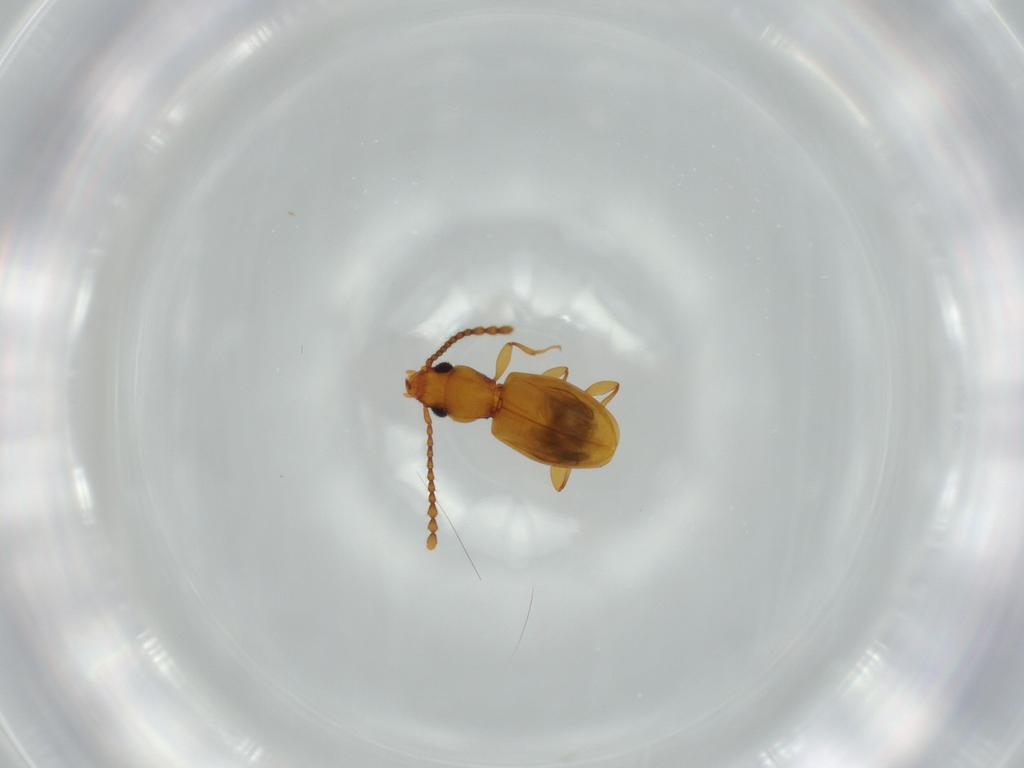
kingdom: Animalia
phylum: Arthropoda
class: Insecta
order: Coleoptera
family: Laemophloeidae
